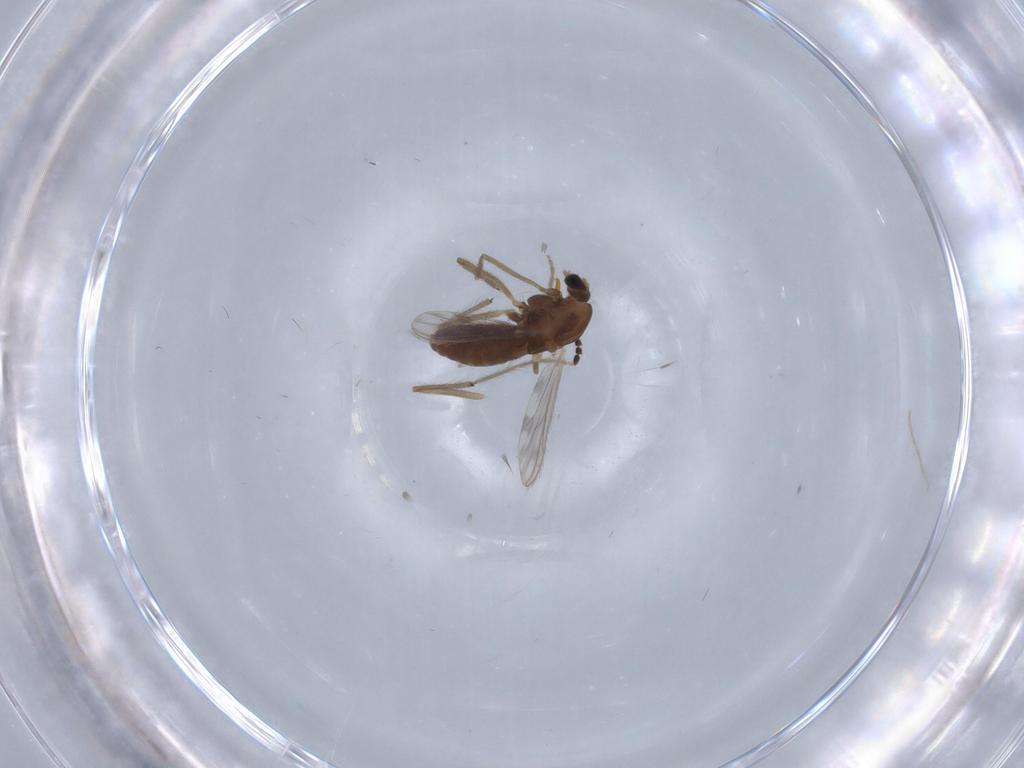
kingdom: Animalia
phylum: Arthropoda
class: Insecta
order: Diptera
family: Chironomidae
